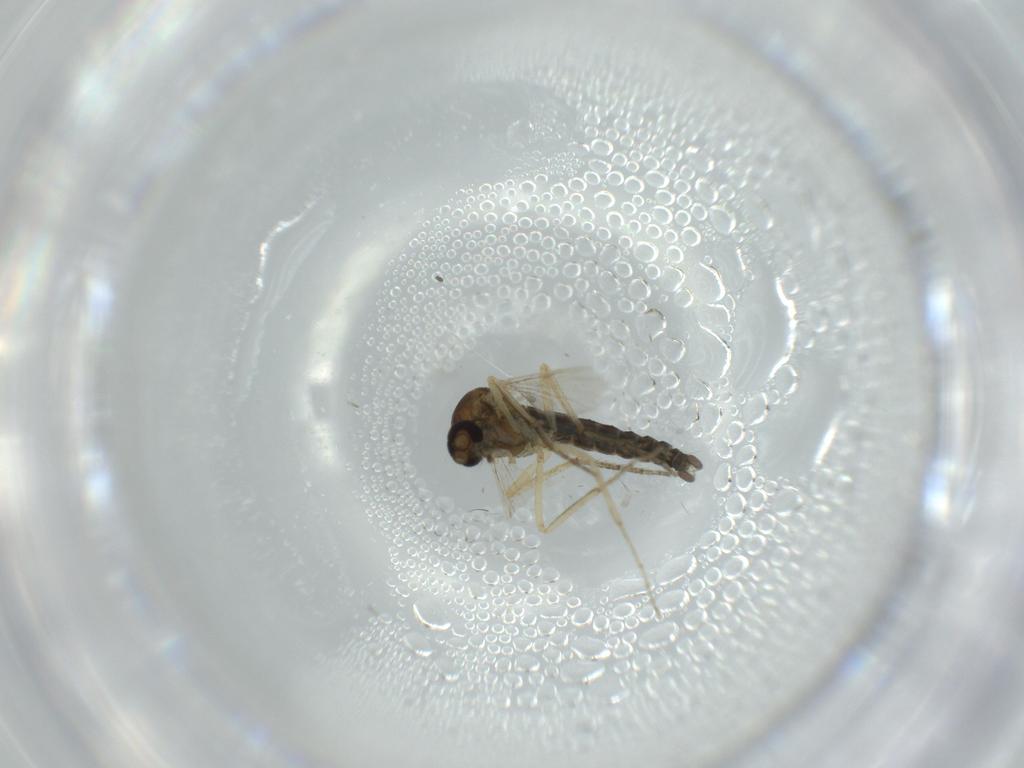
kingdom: Animalia
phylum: Arthropoda
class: Insecta
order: Diptera
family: Ceratopogonidae
